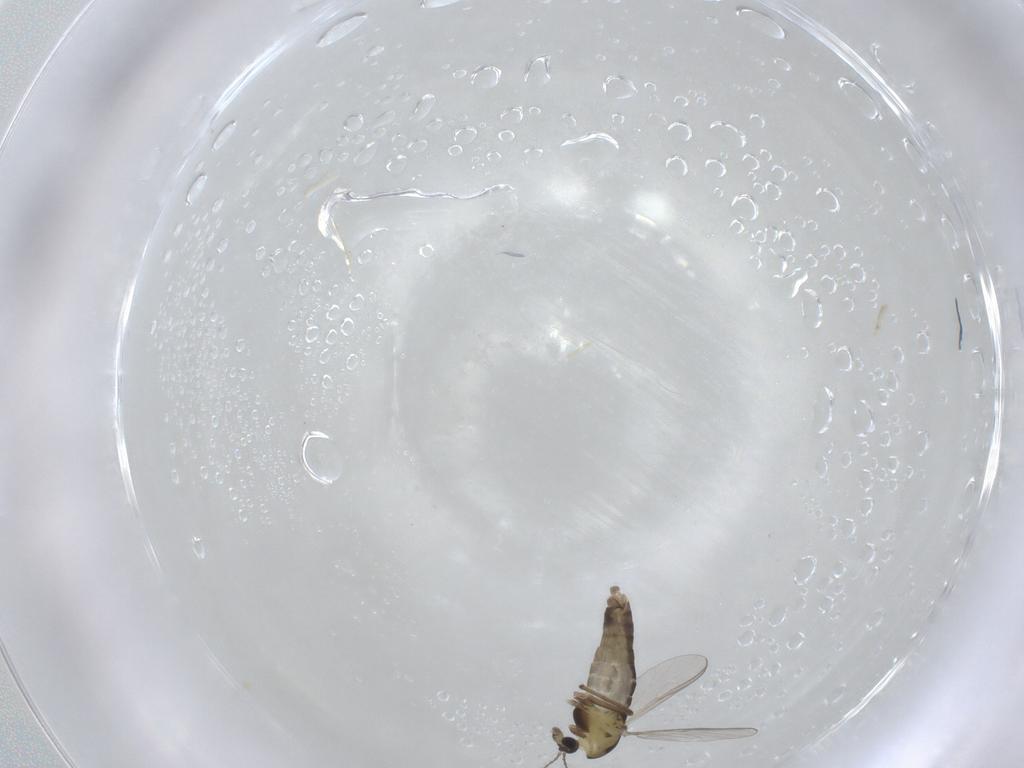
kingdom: Animalia
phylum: Arthropoda
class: Insecta
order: Diptera
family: Chironomidae
